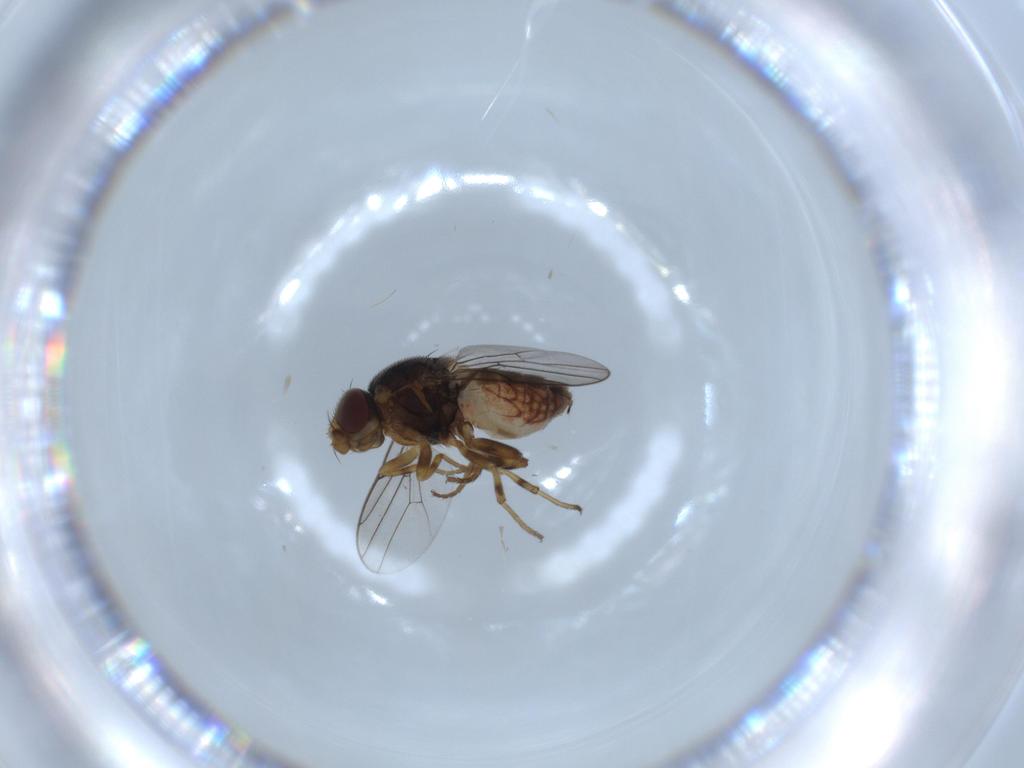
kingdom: Animalia
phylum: Arthropoda
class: Insecta
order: Diptera
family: Chloropidae
